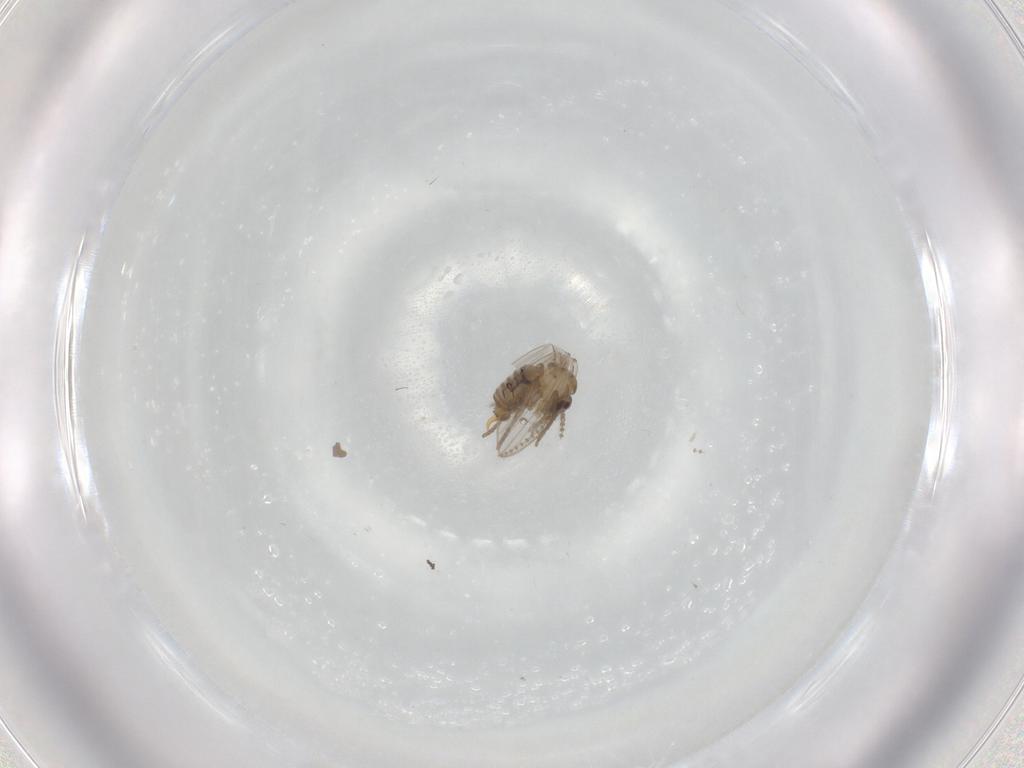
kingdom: Animalia
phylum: Arthropoda
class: Insecta
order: Diptera
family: Psychodidae
